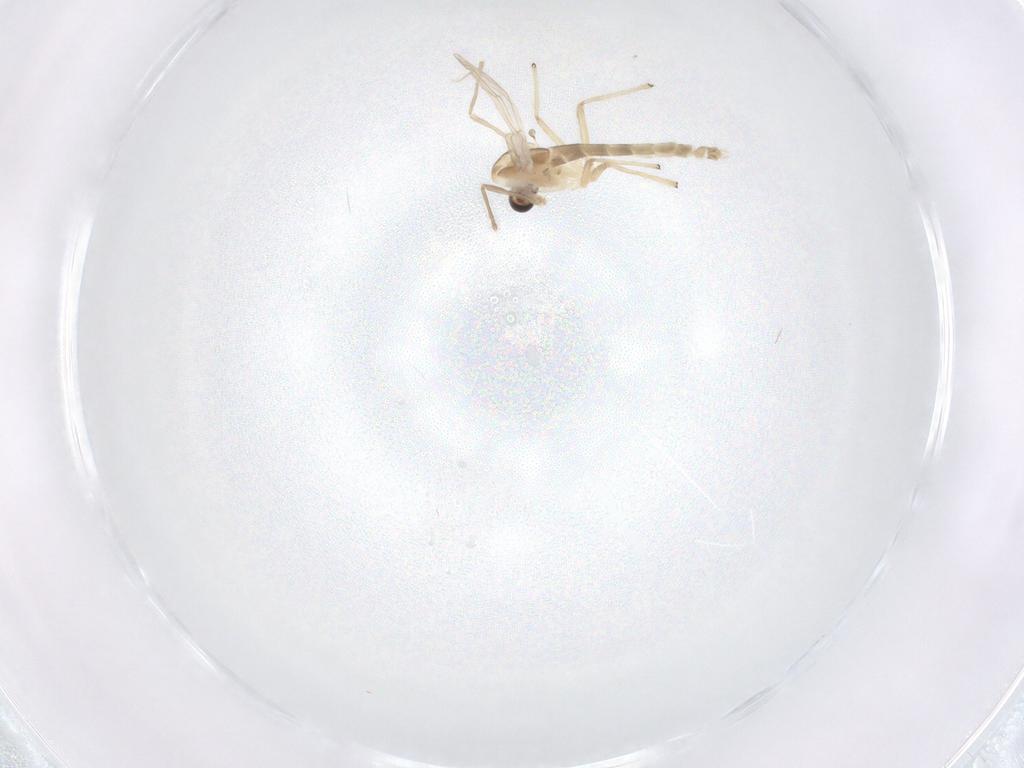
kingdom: Animalia
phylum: Arthropoda
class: Insecta
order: Diptera
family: Chironomidae
